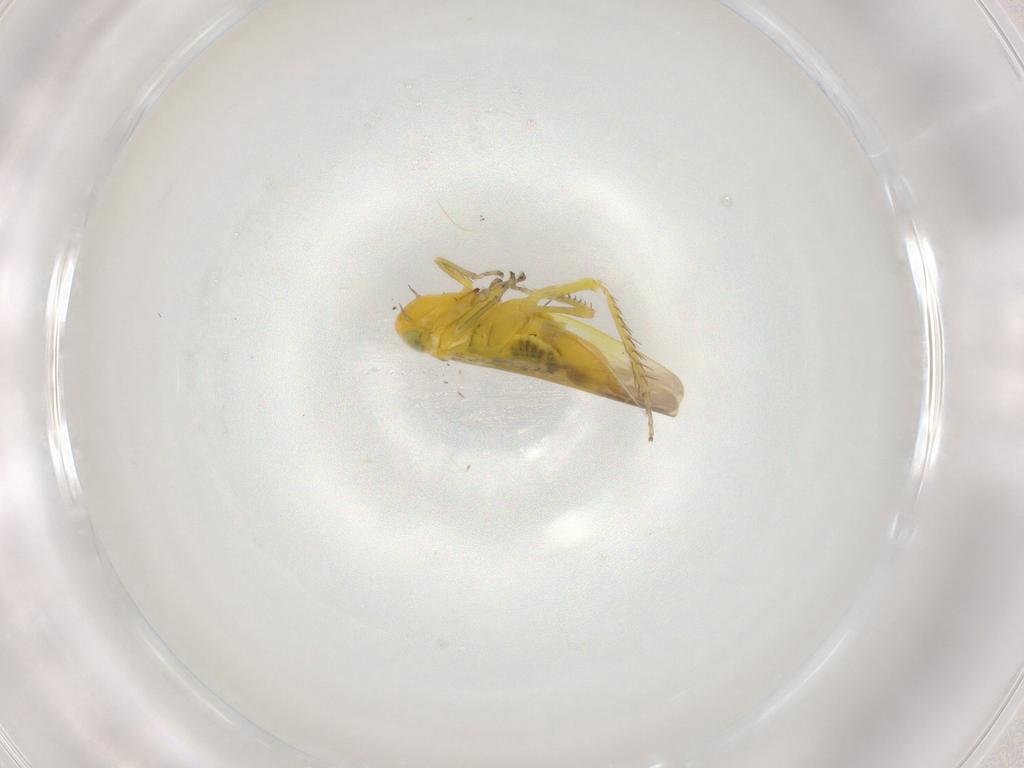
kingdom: Animalia
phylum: Arthropoda
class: Insecta
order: Hemiptera
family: Cicadellidae
